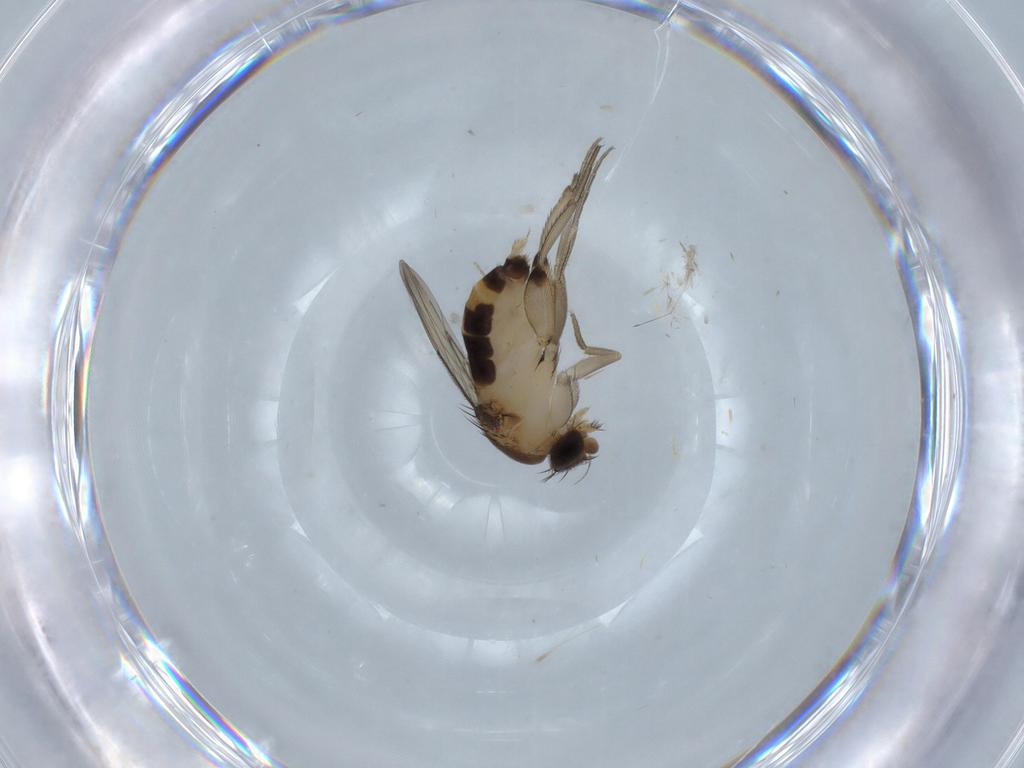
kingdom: Animalia
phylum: Arthropoda
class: Insecta
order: Diptera
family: Phoridae
